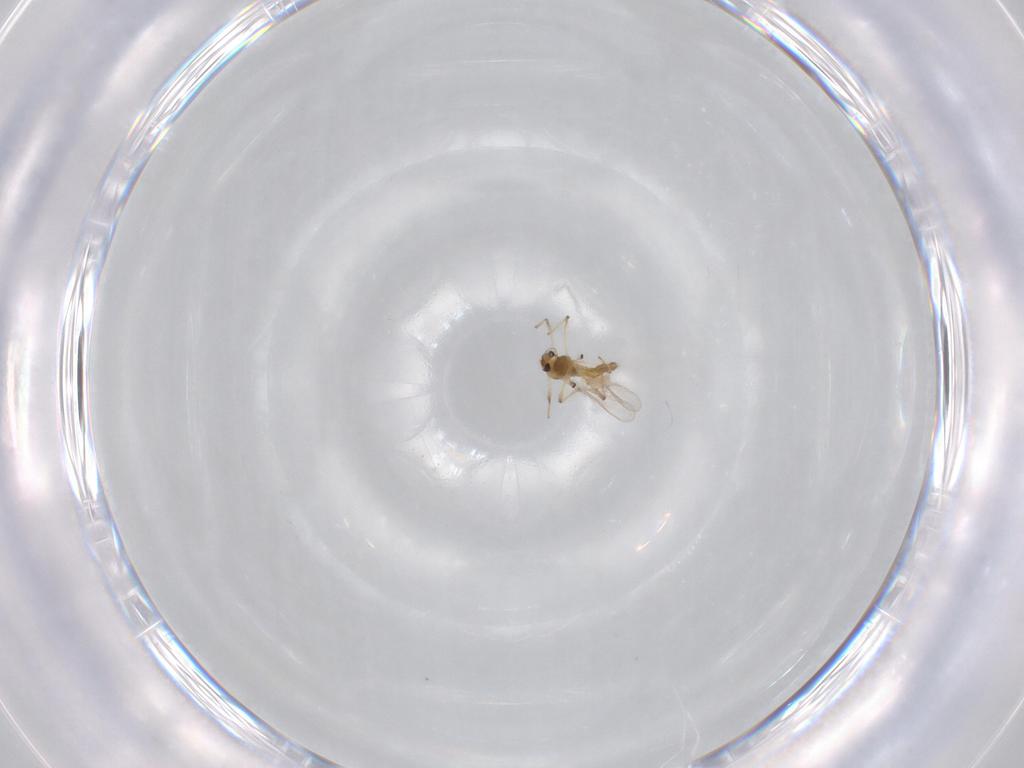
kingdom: Animalia
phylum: Arthropoda
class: Insecta
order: Diptera
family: Chironomidae
